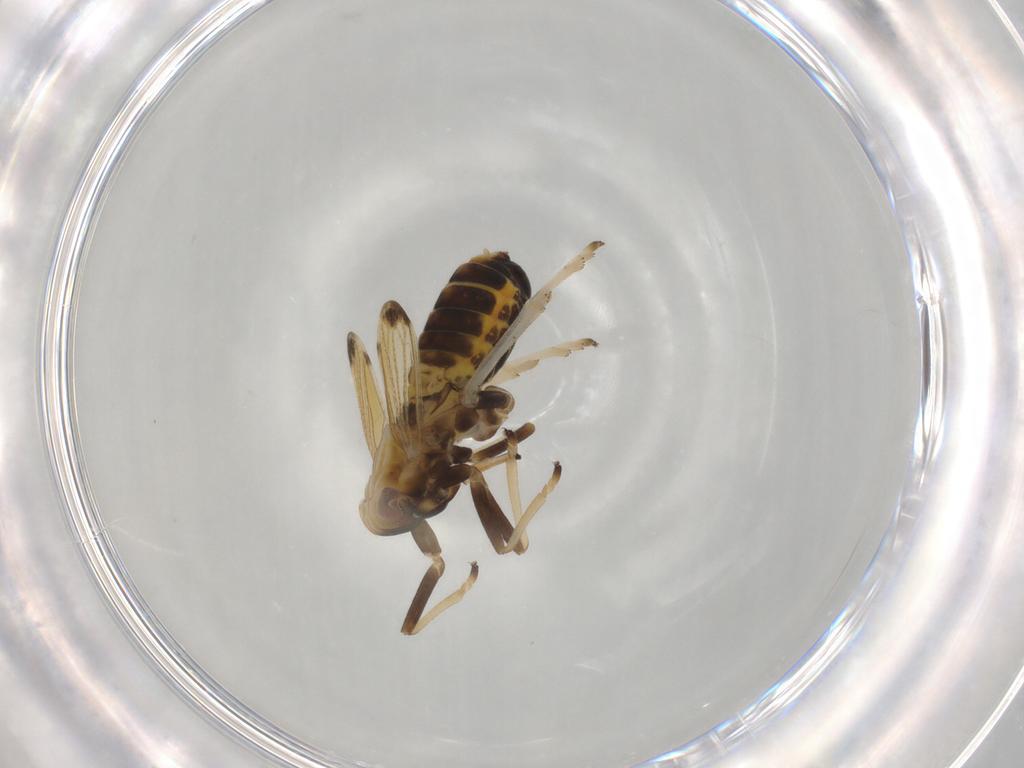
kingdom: Animalia
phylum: Arthropoda
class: Insecta
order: Hemiptera
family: Delphacidae
